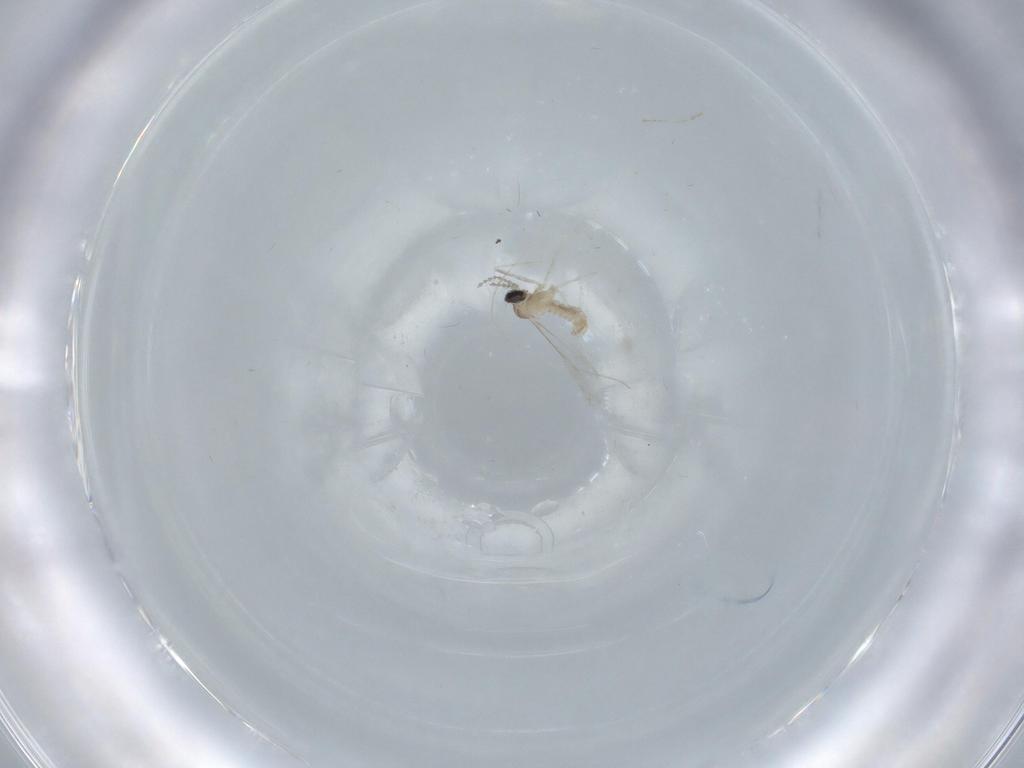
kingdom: Animalia
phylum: Arthropoda
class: Insecta
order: Diptera
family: Cecidomyiidae
